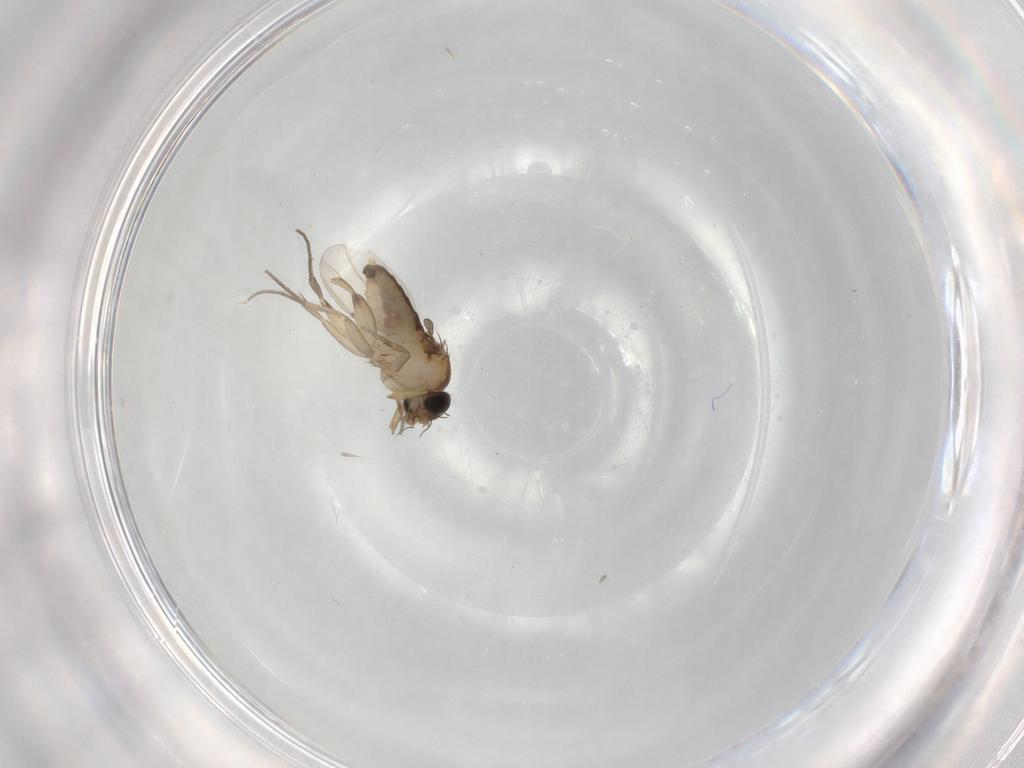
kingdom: Animalia
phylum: Arthropoda
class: Insecta
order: Diptera
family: Phoridae
